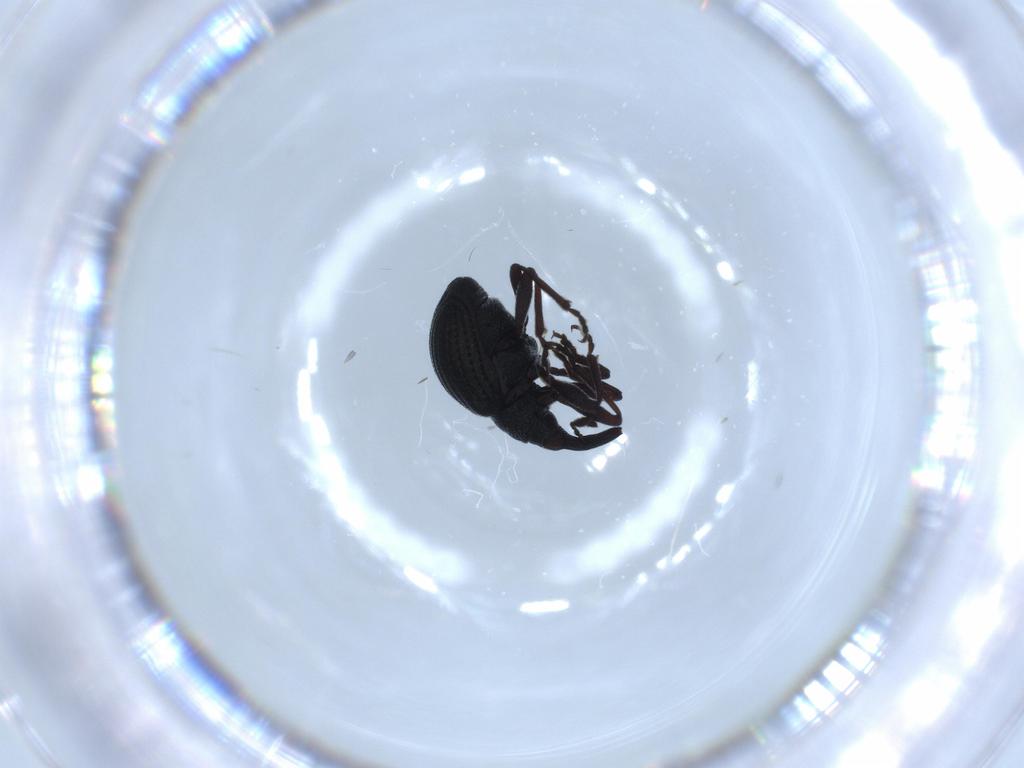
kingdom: Animalia
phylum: Arthropoda
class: Insecta
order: Coleoptera
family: Brentidae
